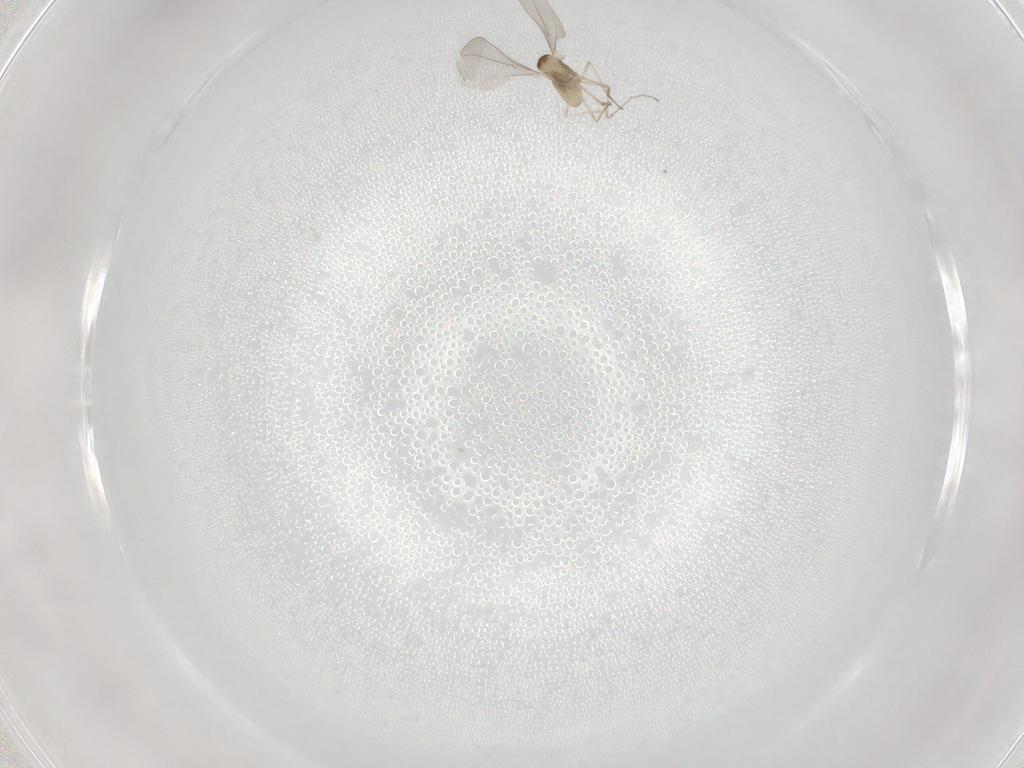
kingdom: Animalia
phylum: Arthropoda
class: Insecta
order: Diptera
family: Cecidomyiidae
